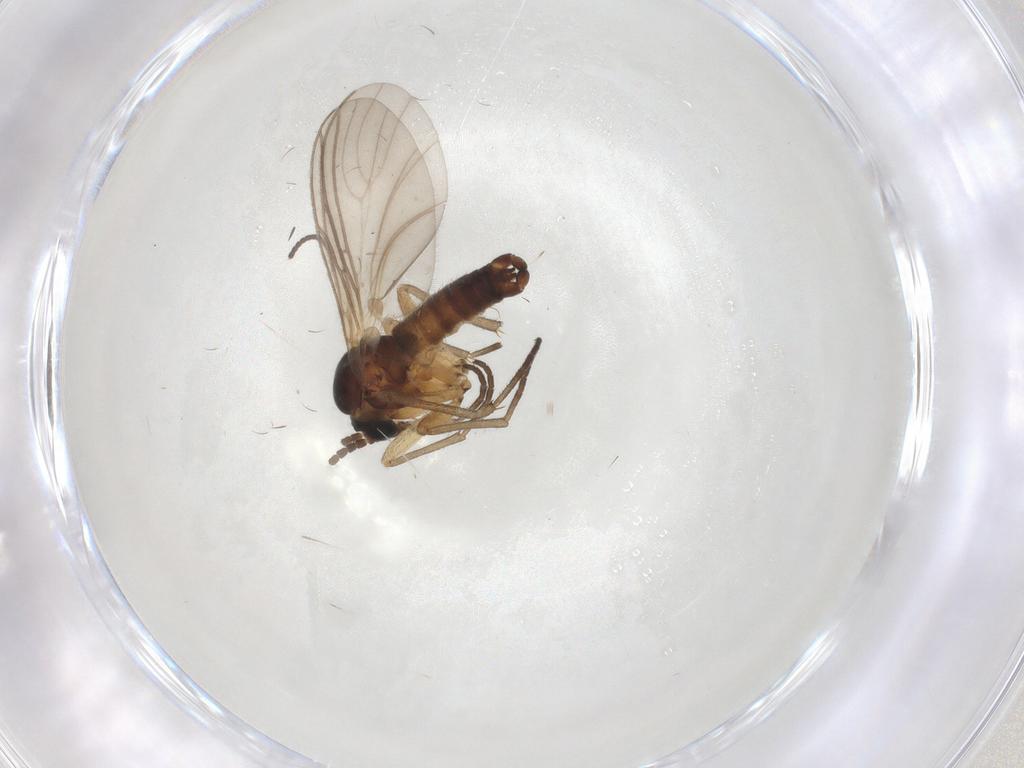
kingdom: Animalia
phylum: Arthropoda
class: Insecta
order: Diptera
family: Sciaridae
